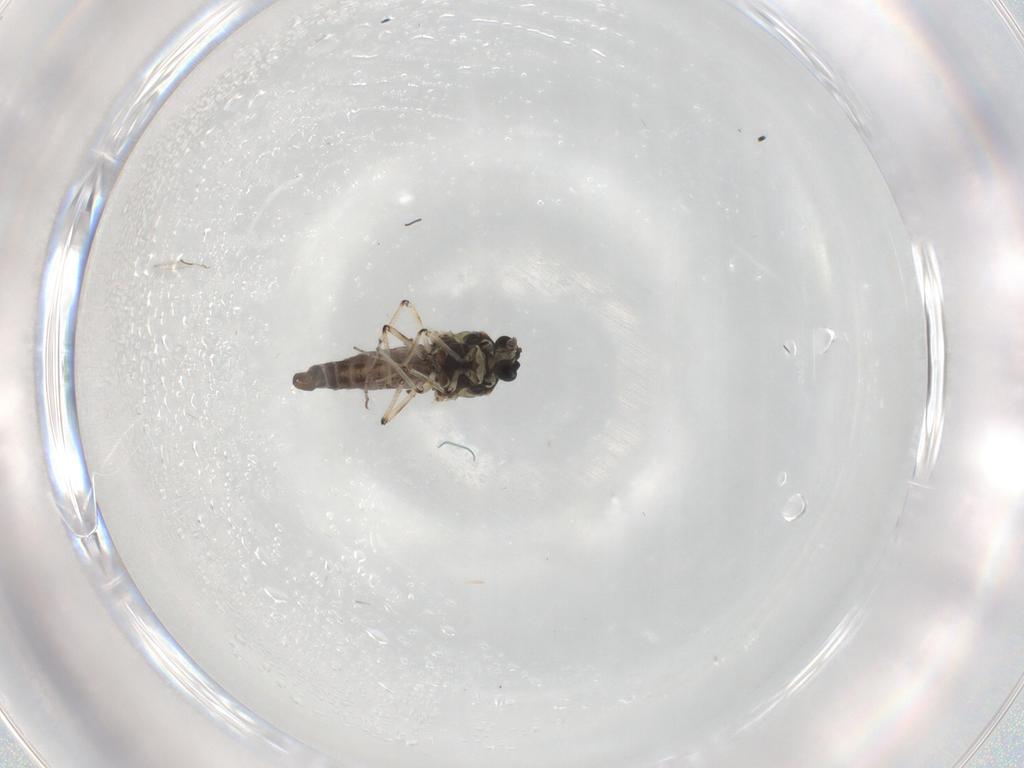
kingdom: Animalia
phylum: Arthropoda
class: Insecta
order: Diptera
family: Ceratopogonidae
